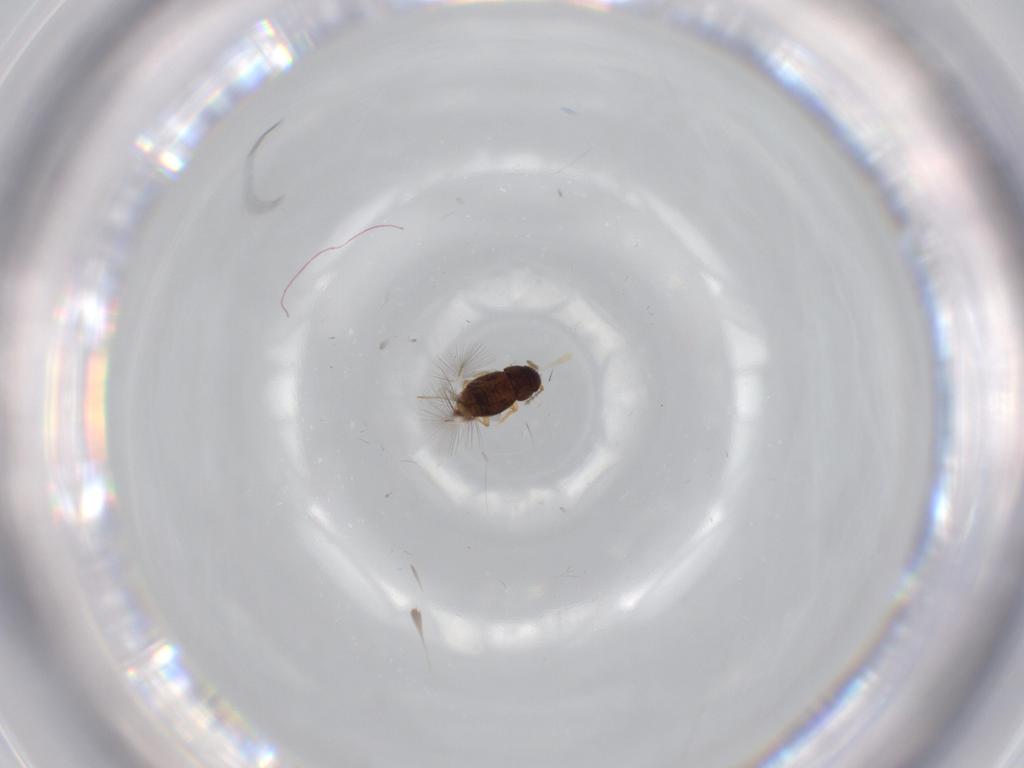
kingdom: Animalia
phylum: Arthropoda
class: Insecta
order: Coleoptera
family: Ptiliidae
